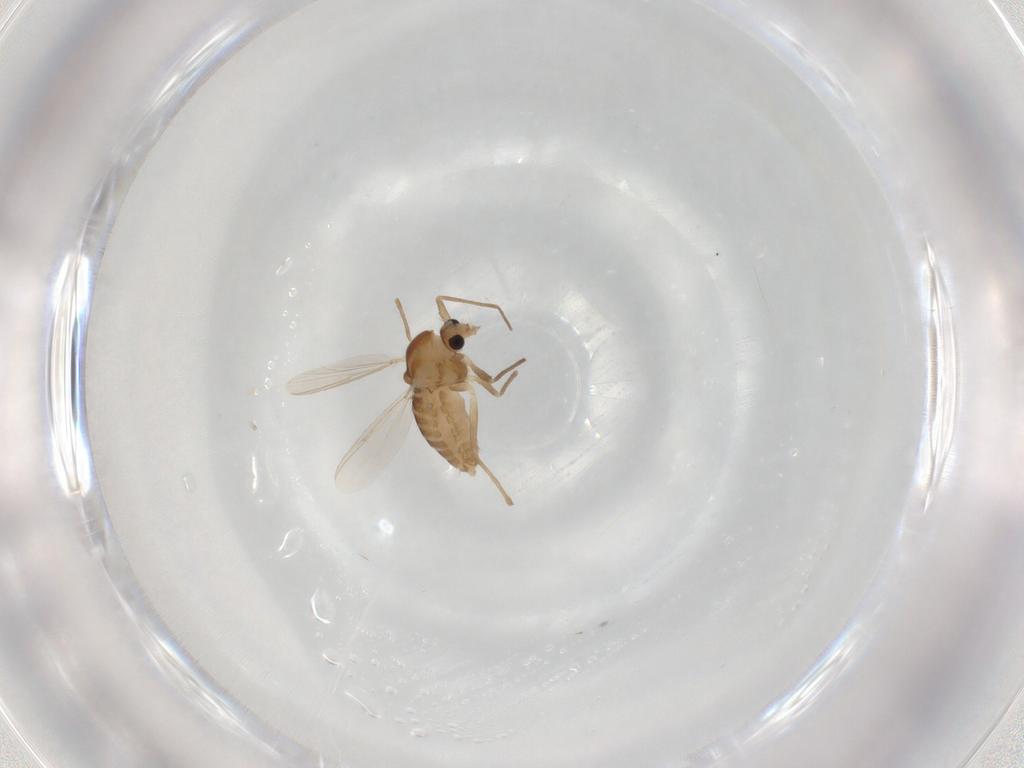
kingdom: Animalia
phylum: Arthropoda
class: Insecta
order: Diptera
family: Chironomidae
